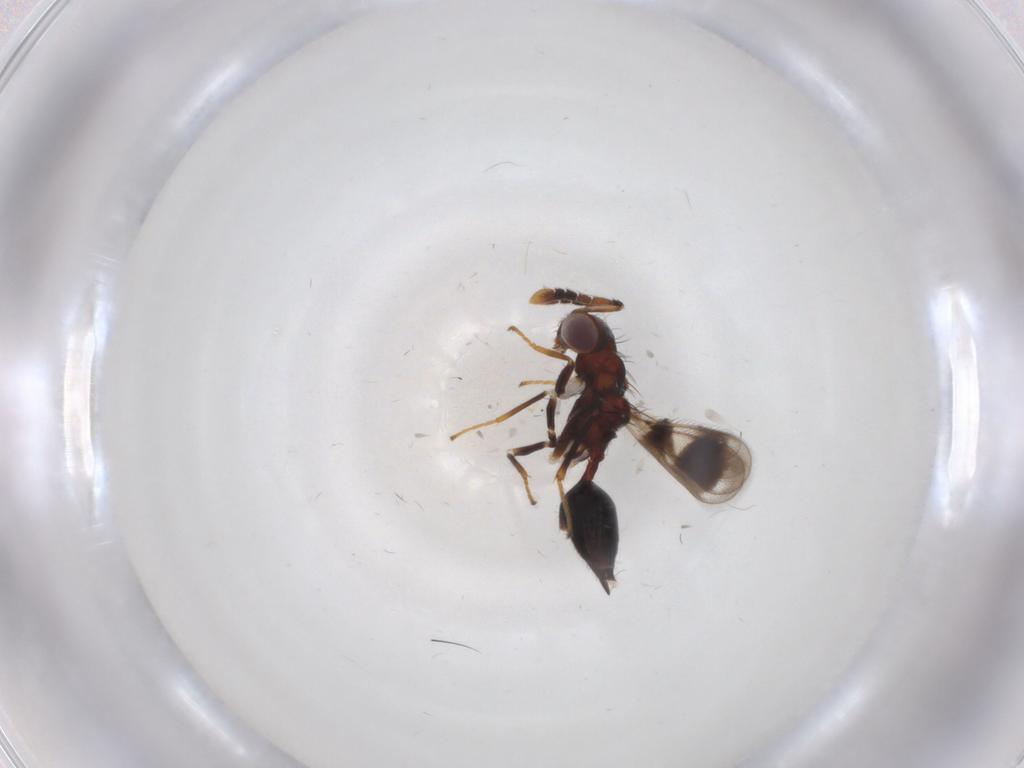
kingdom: Animalia
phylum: Arthropoda
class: Insecta
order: Hymenoptera
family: Eulophidae
